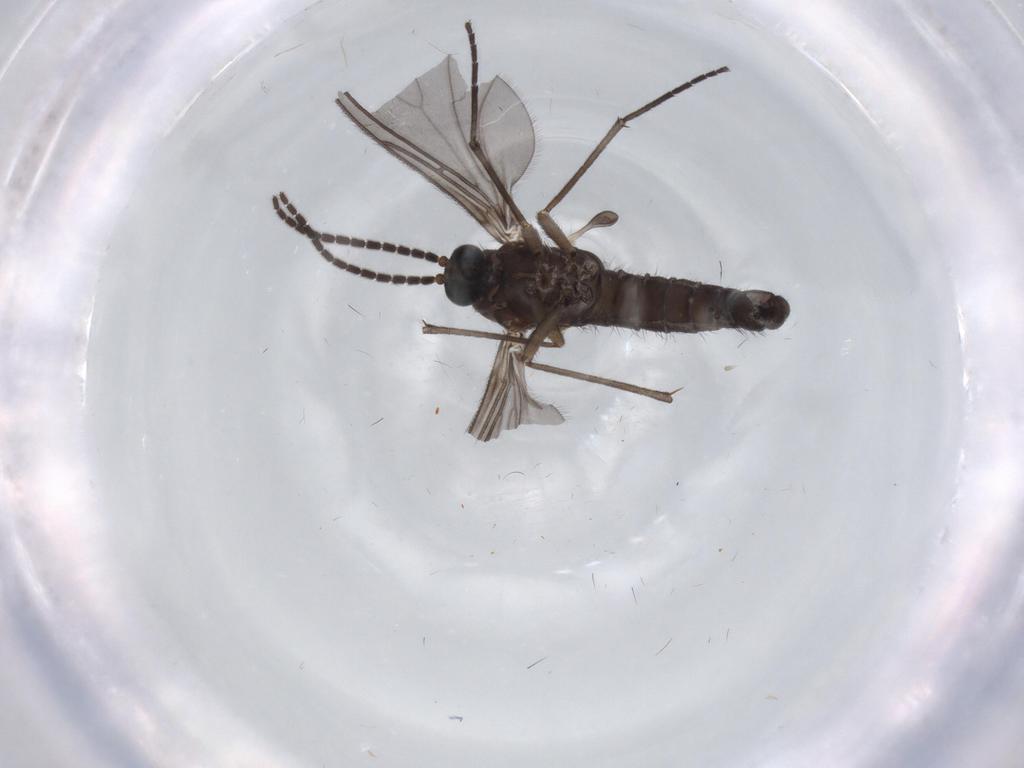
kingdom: Animalia
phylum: Arthropoda
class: Insecta
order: Diptera
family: Sciaridae
